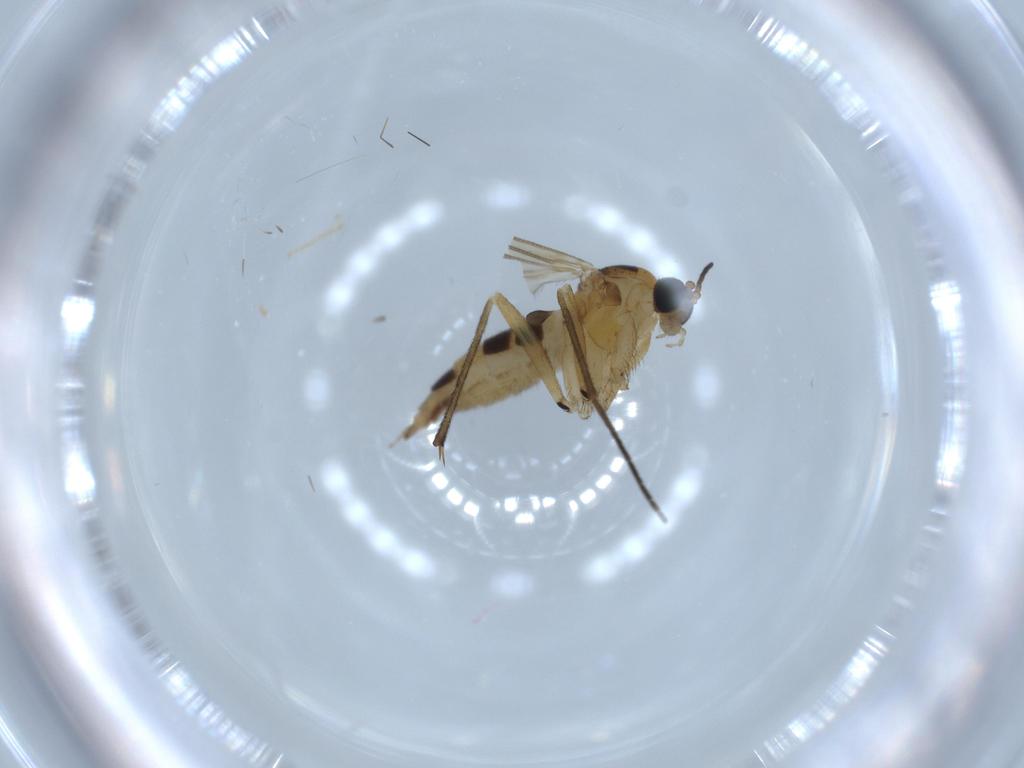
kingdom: Animalia
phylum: Arthropoda
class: Insecta
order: Diptera
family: Sciaridae
